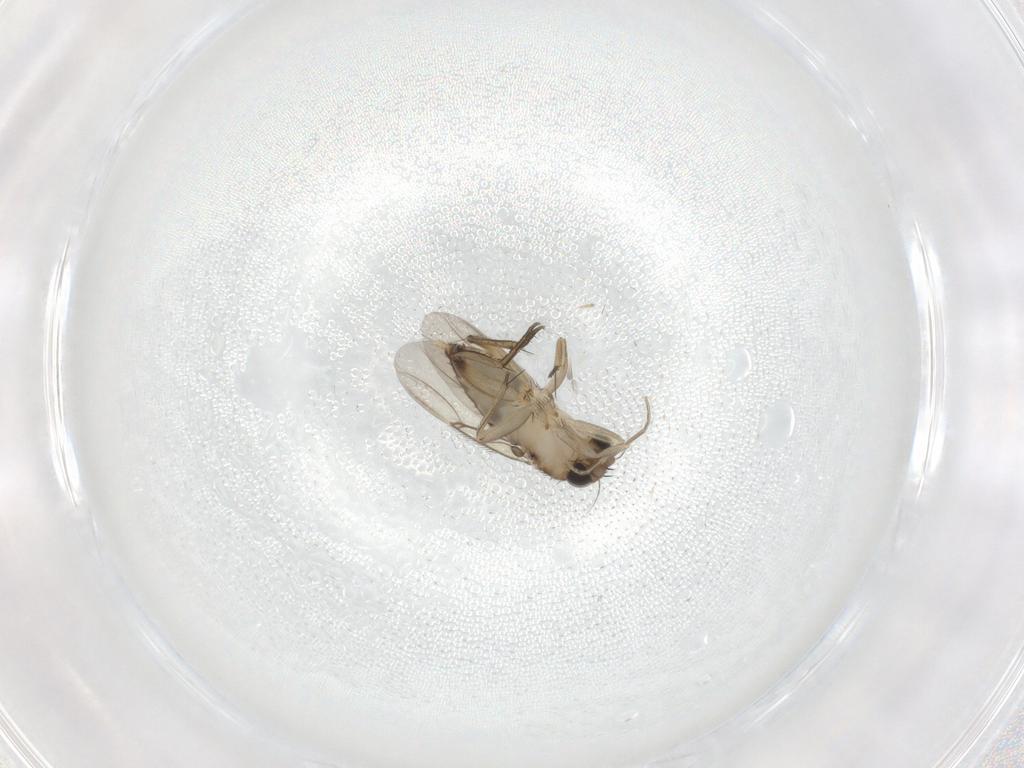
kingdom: Animalia
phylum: Arthropoda
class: Insecta
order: Diptera
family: Phoridae
